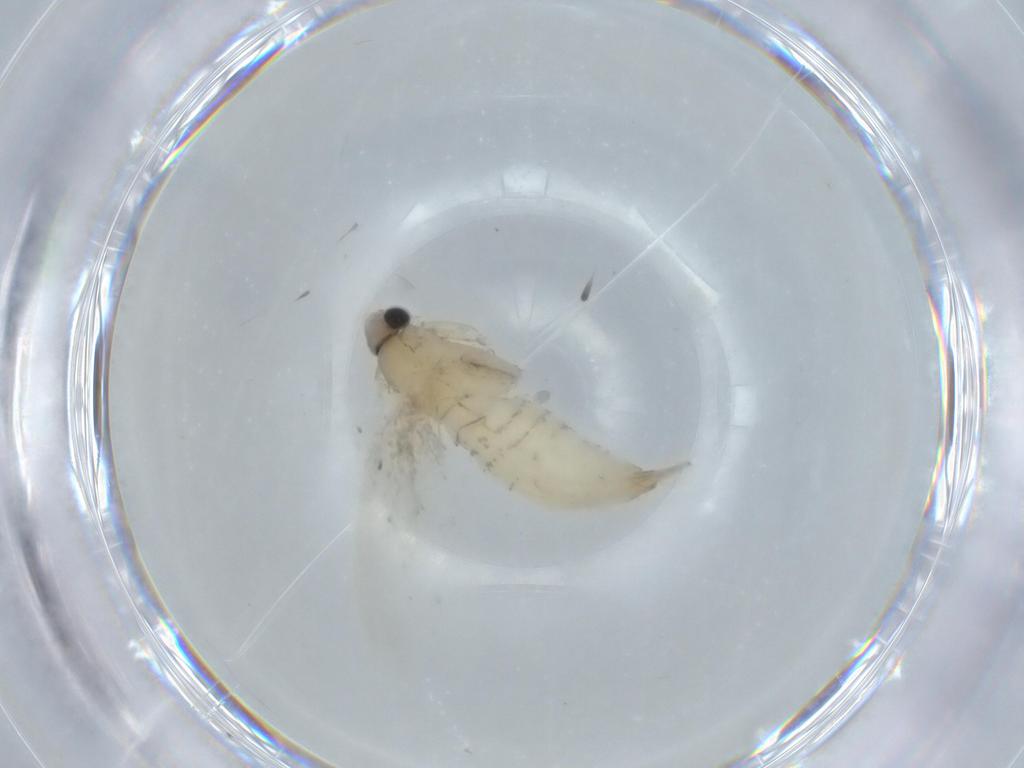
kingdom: Animalia
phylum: Arthropoda
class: Insecta
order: Lepidoptera
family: Tineidae
